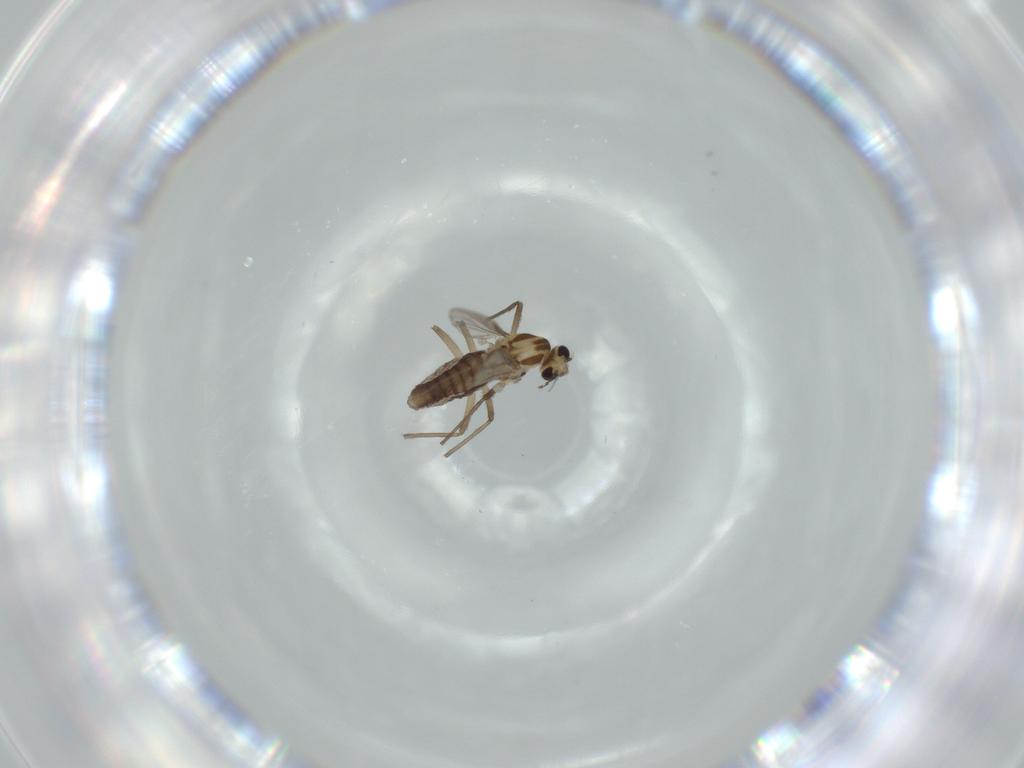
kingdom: Animalia
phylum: Arthropoda
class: Insecta
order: Diptera
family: Chironomidae
